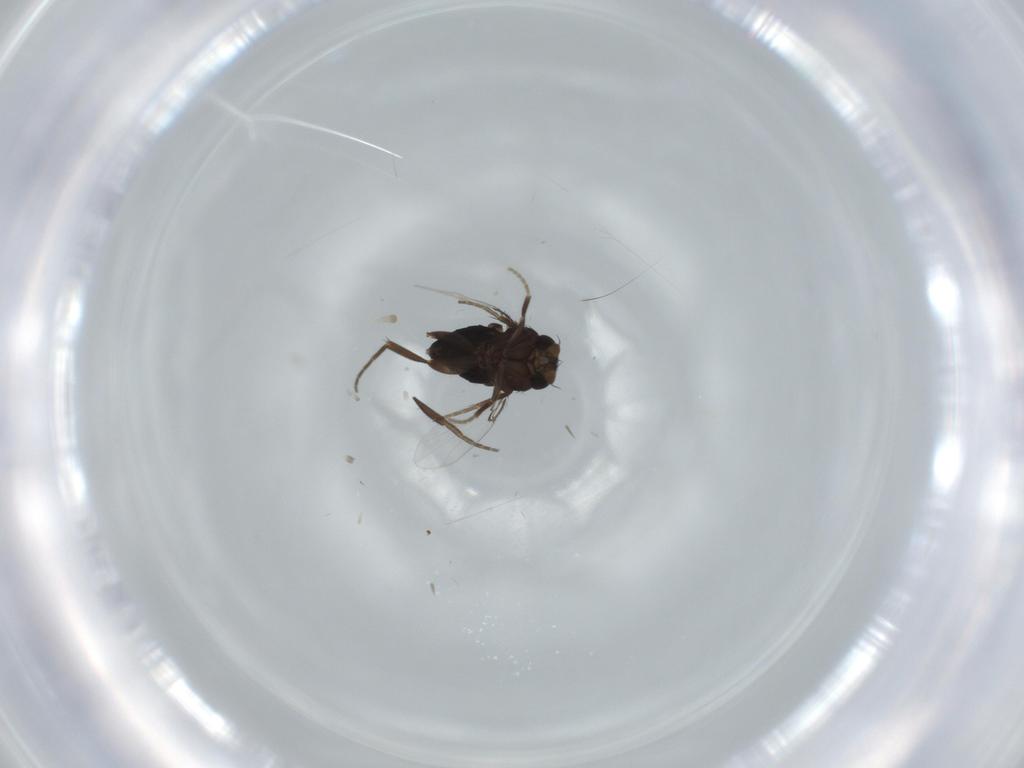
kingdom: Animalia
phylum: Arthropoda
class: Insecta
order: Diptera
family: Phoridae
